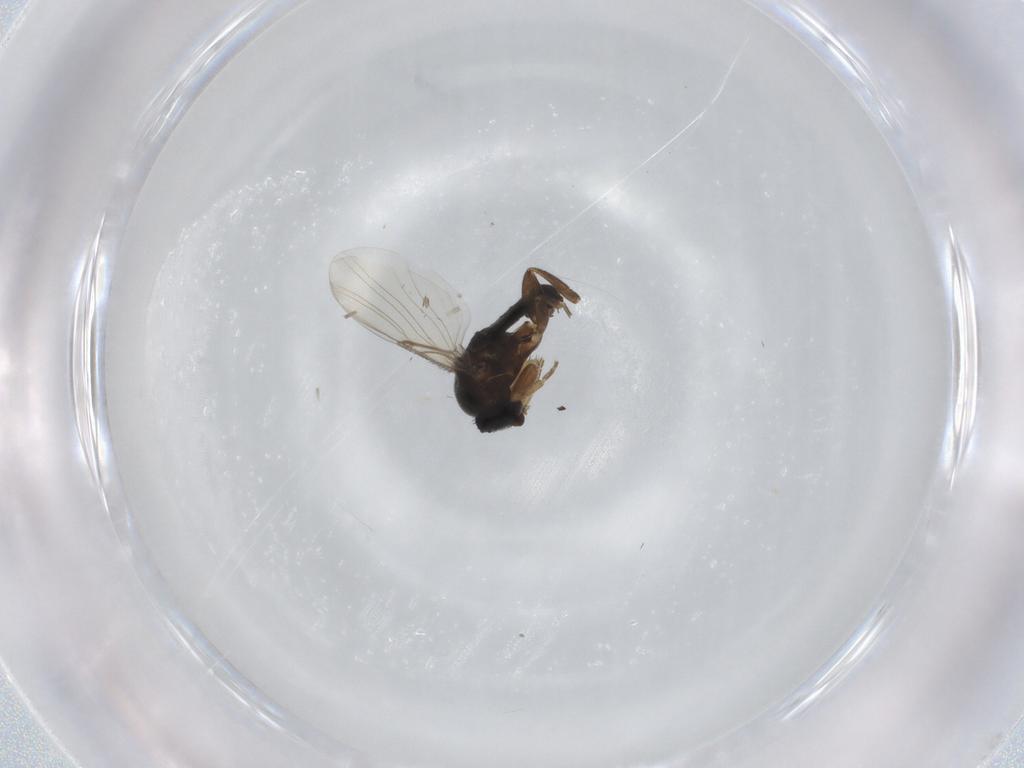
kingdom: Animalia
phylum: Arthropoda
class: Insecta
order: Diptera
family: Phoridae
